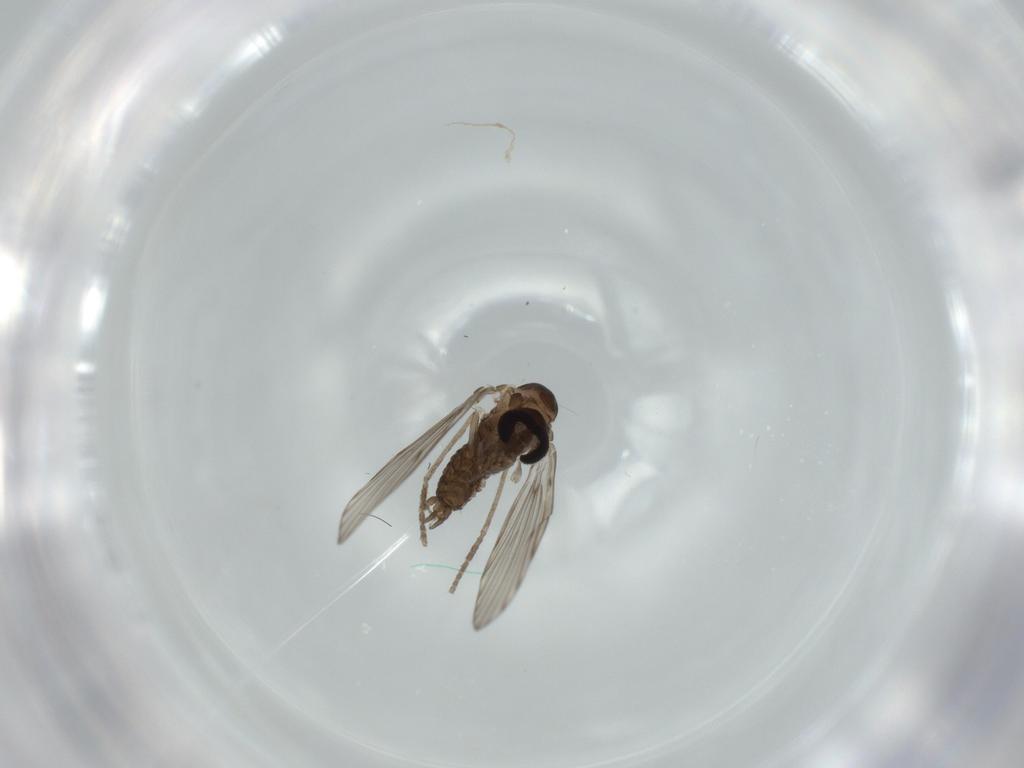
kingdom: Animalia
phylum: Arthropoda
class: Insecta
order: Diptera
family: Psychodidae
